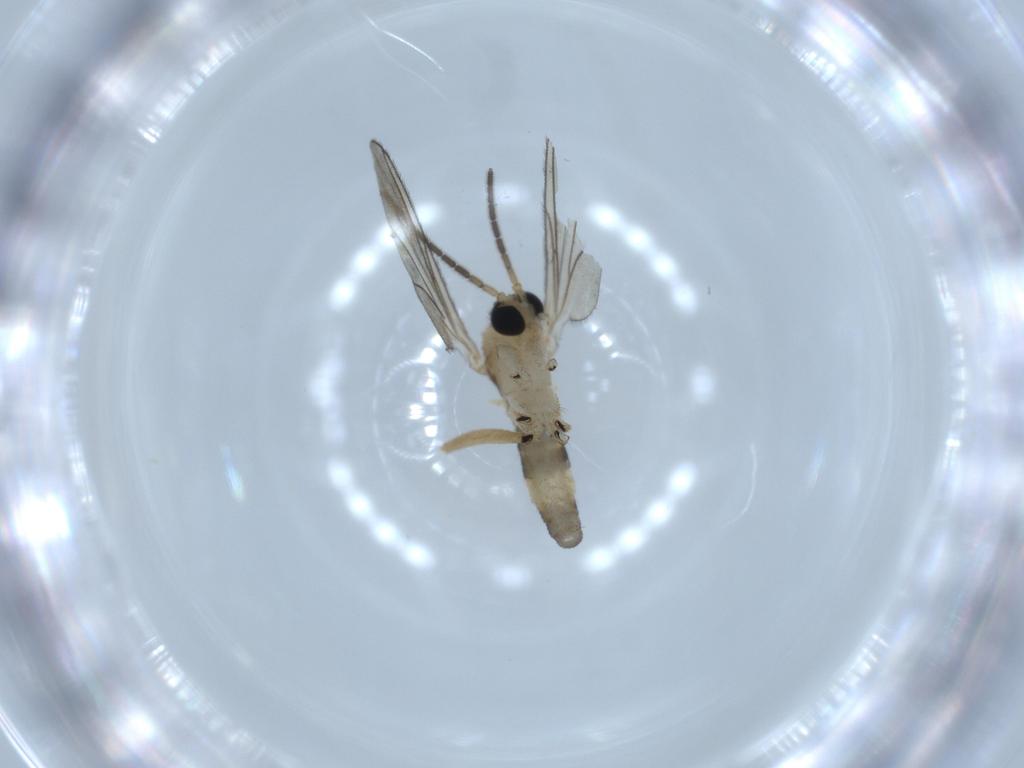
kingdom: Animalia
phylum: Arthropoda
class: Insecta
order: Diptera
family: Sciaridae
